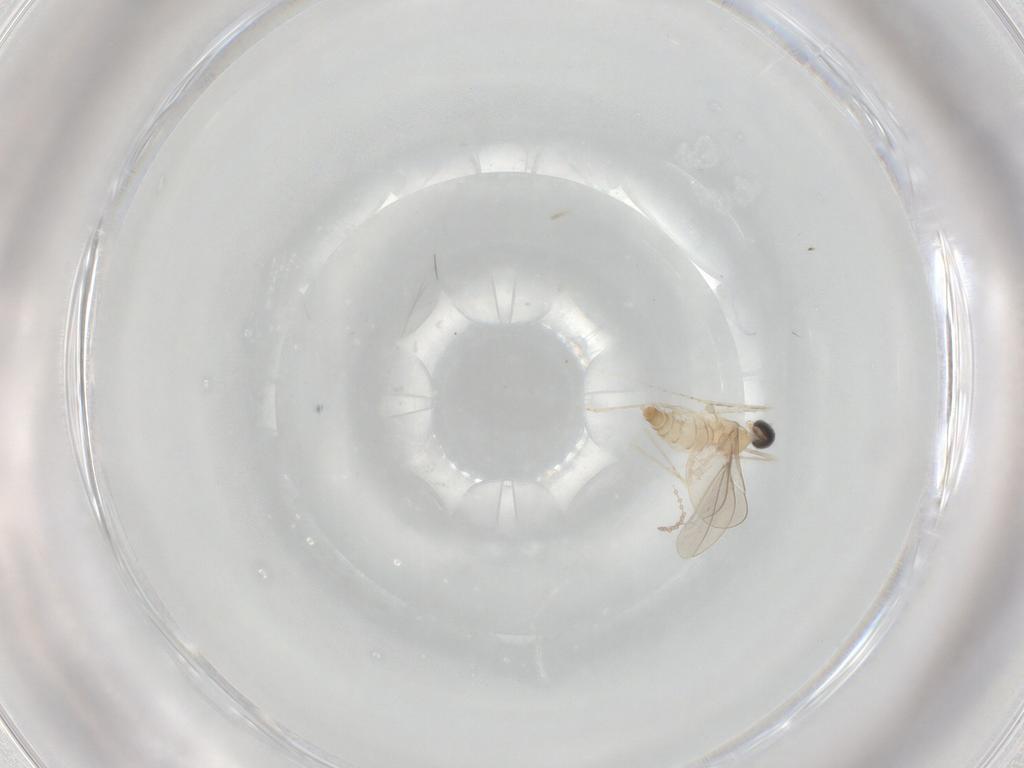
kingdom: Animalia
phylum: Arthropoda
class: Insecta
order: Diptera
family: Cecidomyiidae
